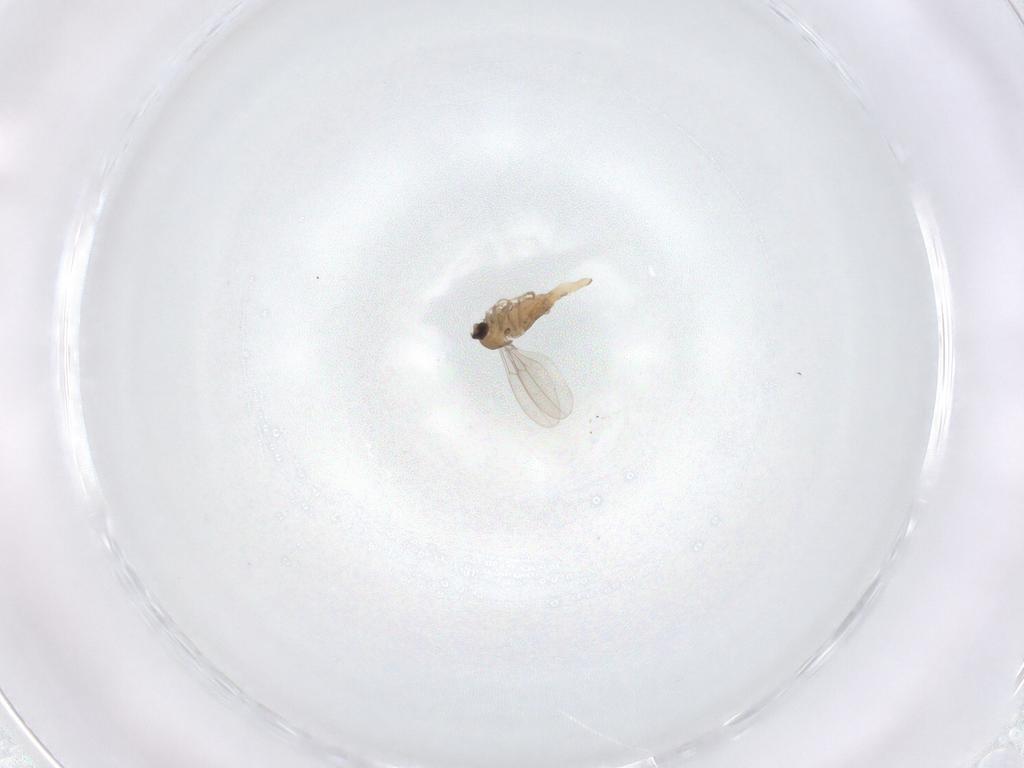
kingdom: Animalia
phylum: Arthropoda
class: Insecta
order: Diptera
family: Cecidomyiidae
